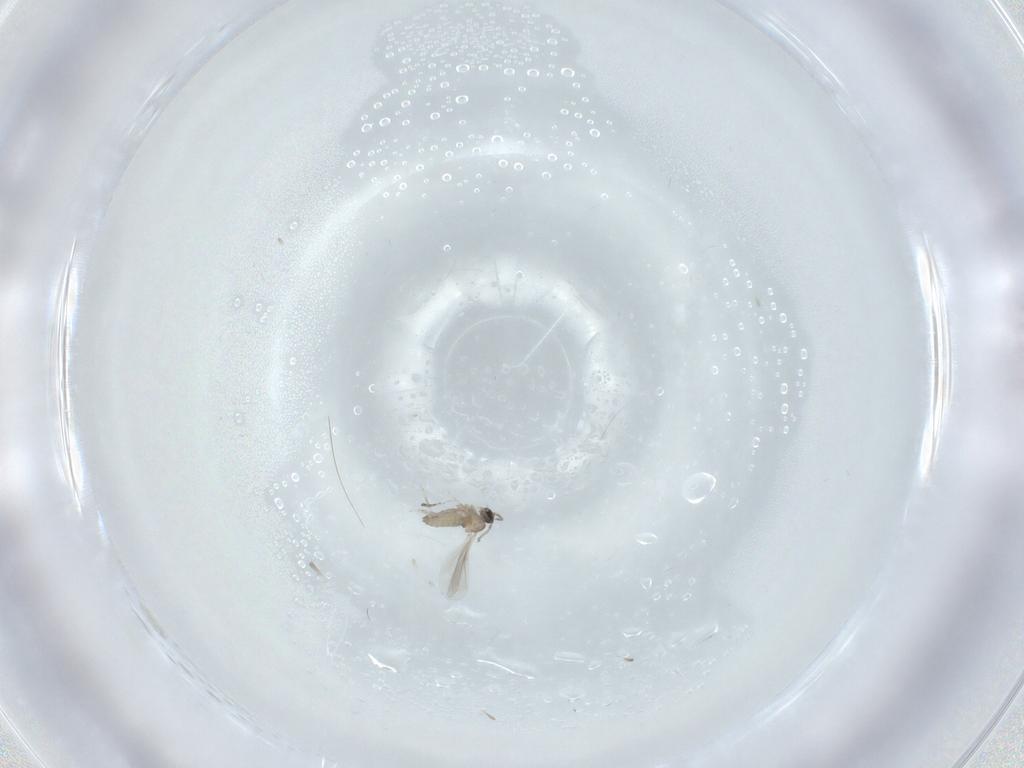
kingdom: Animalia
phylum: Arthropoda
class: Insecta
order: Diptera
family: Cecidomyiidae
